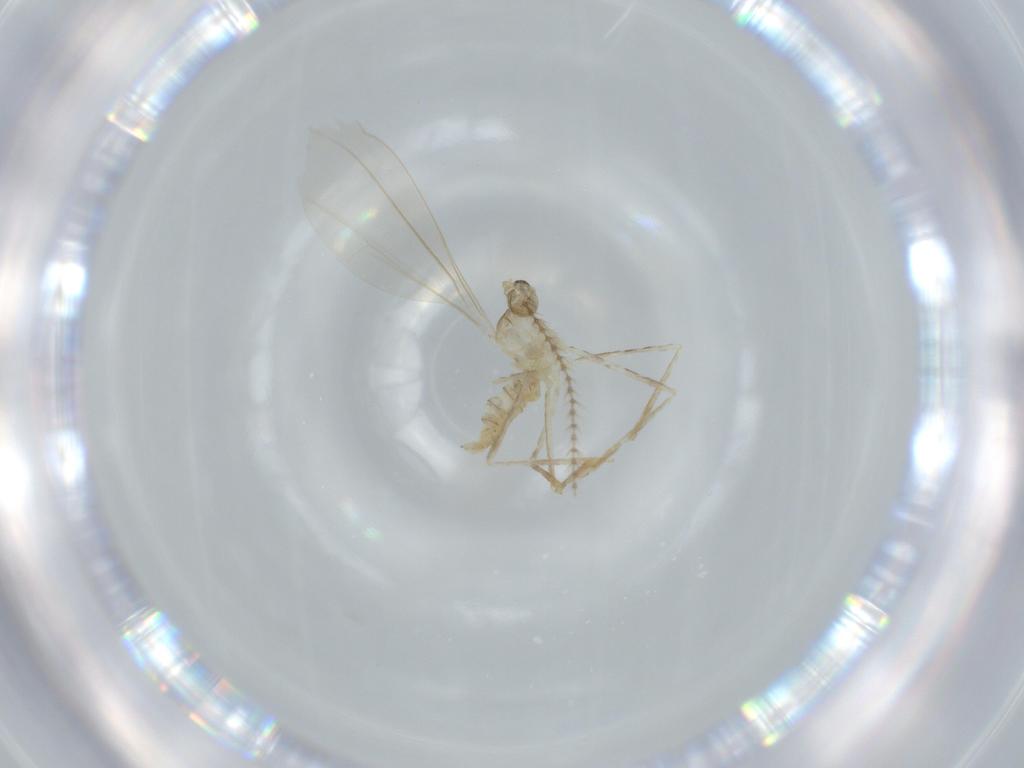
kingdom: Animalia
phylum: Arthropoda
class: Insecta
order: Diptera
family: Cecidomyiidae
